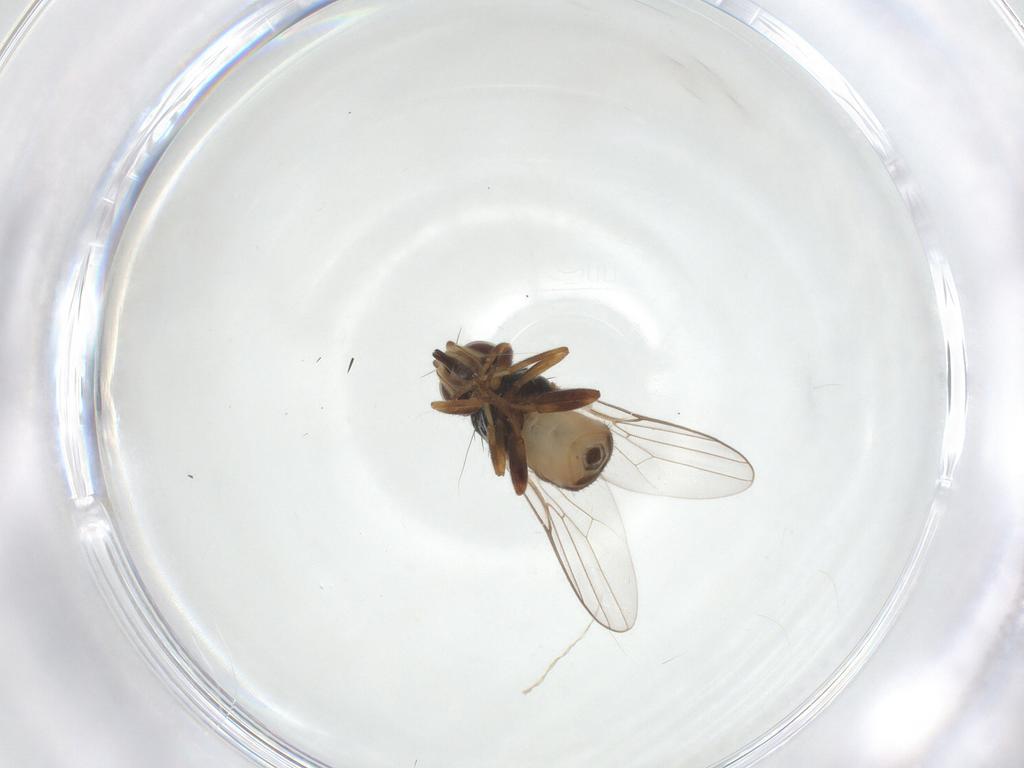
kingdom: Animalia
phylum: Arthropoda
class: Insecta
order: Diptera
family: Chloropidae
